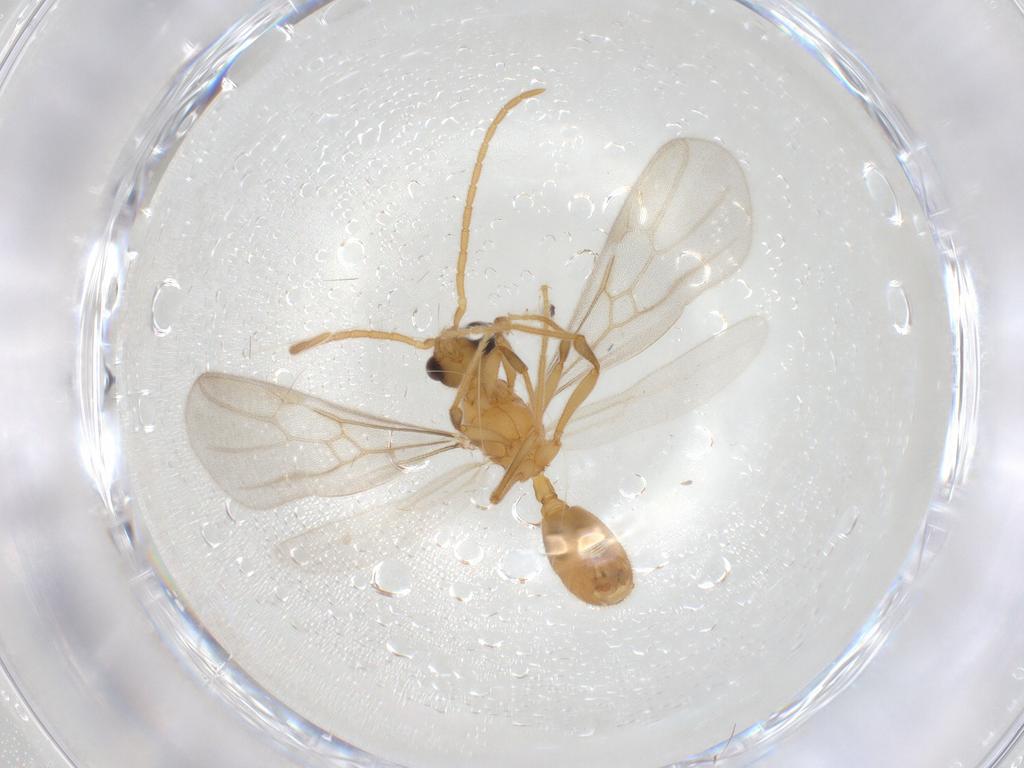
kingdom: Animalia
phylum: Arthropoda
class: Insecta
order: Hymenoptera
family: Formicidae
